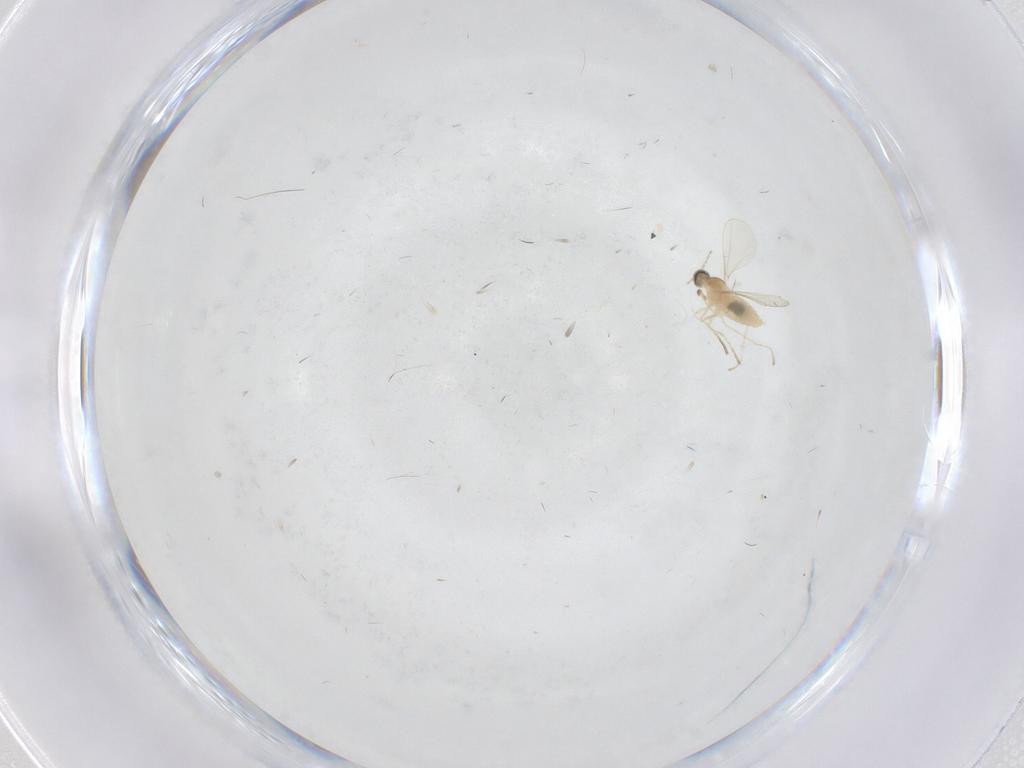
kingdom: Animalia
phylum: Arthropoda
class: Insecta
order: Diptera
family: Cecidomyiidae
